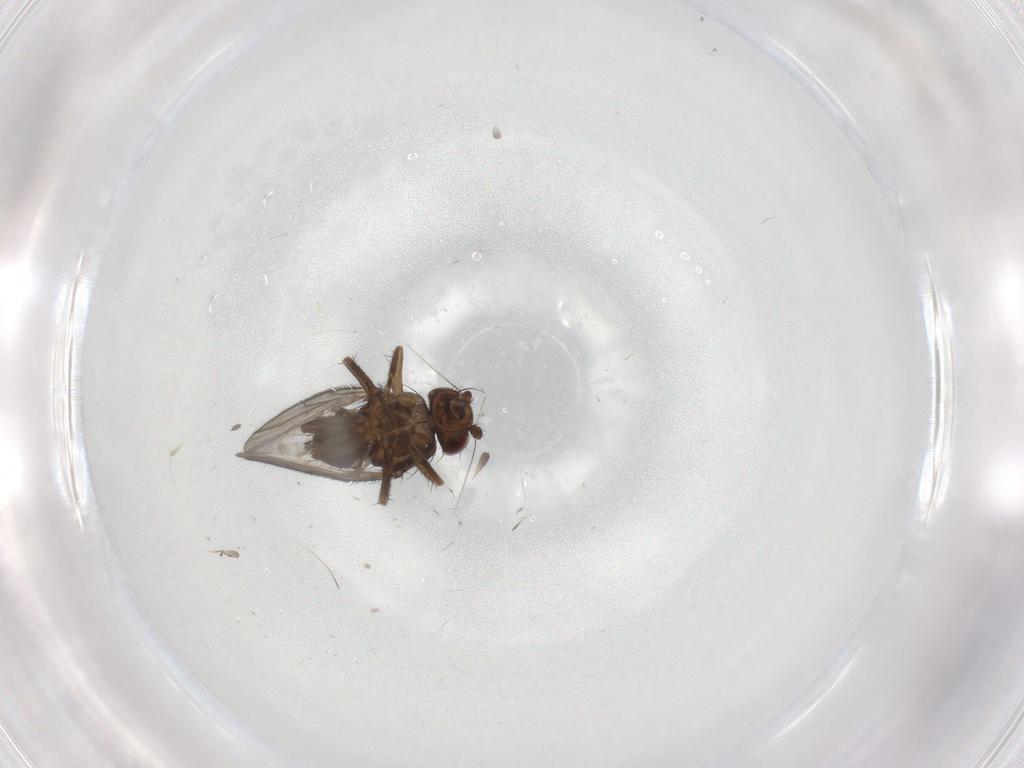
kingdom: Animalia
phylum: Arthropoda
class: Insecta
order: Diptera
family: Sciaridae
